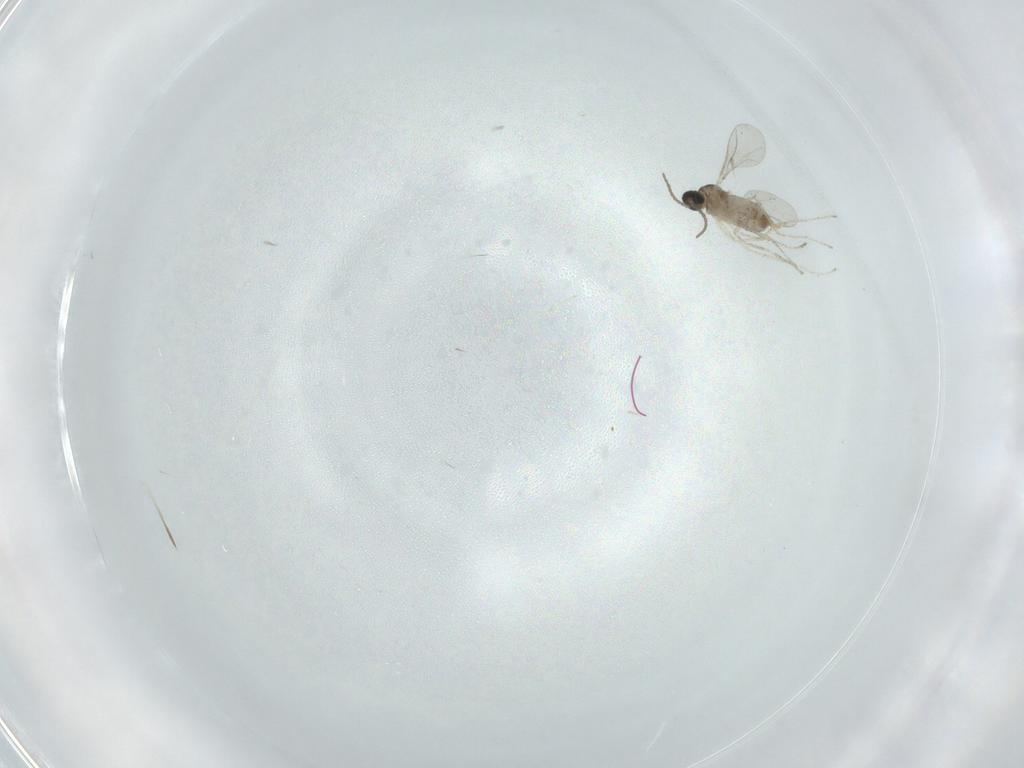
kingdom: Animalia
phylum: Arthropoda
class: Insecta
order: Diptera
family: Cecidomyiidae
